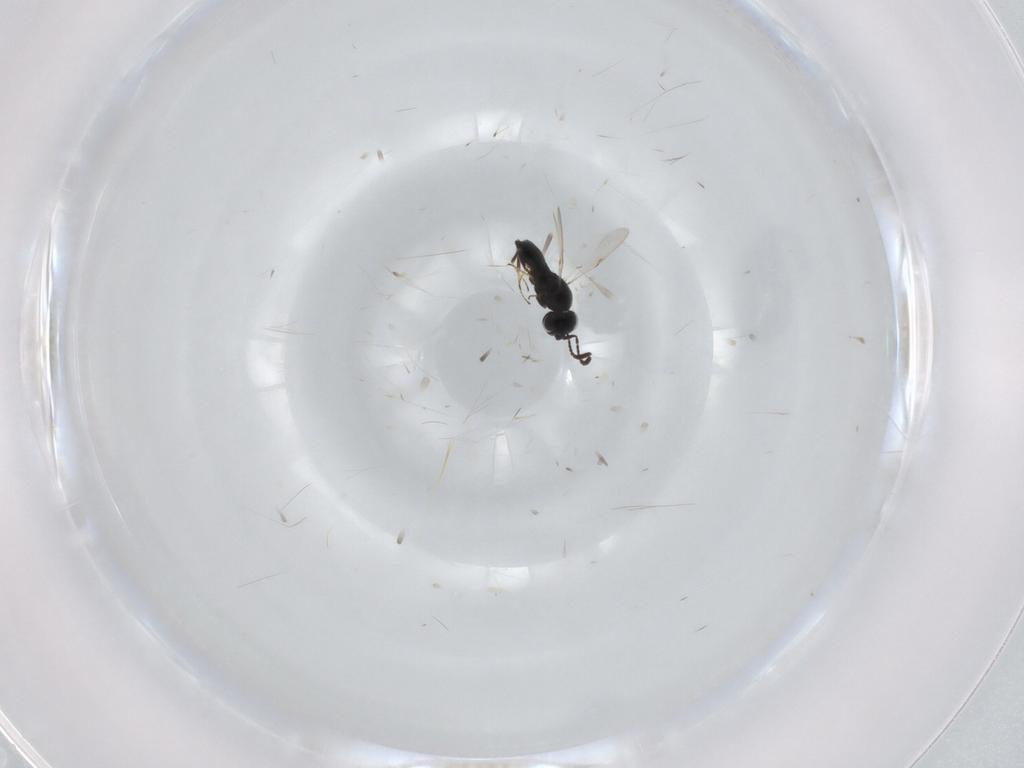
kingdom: Animalia
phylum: Arthropoda
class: Insecta
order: Hymenoptera
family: Scelionidae
